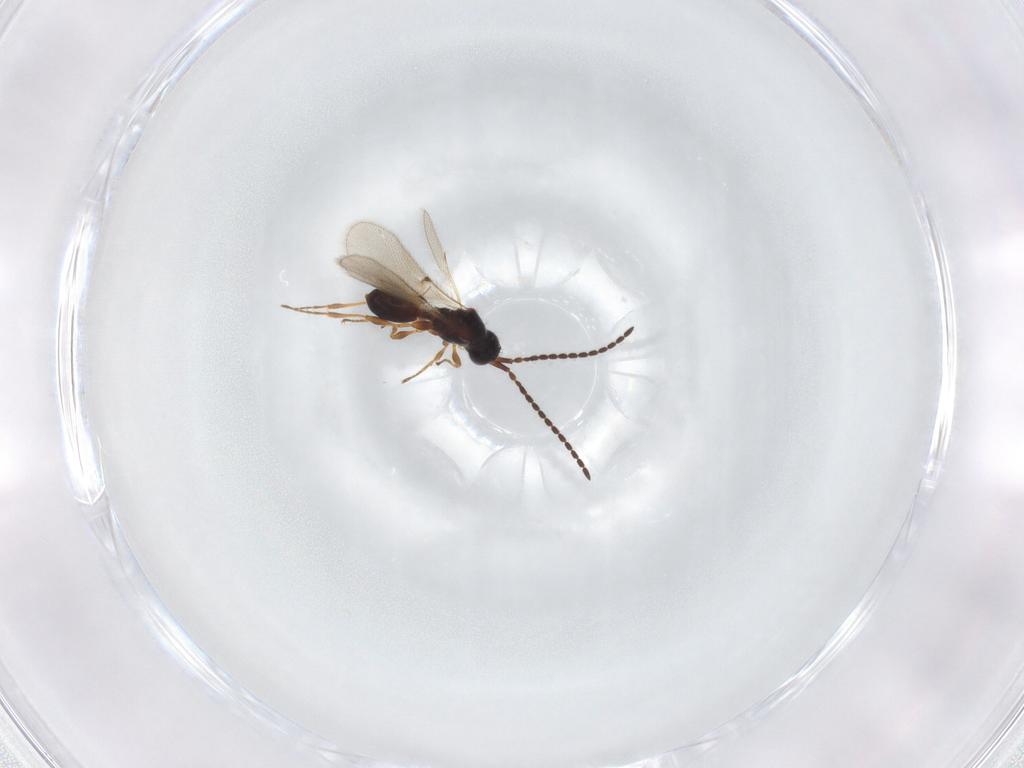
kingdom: Animalia
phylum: Arthropoda
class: Insecta
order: Hymenoptera
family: Diapriidae
